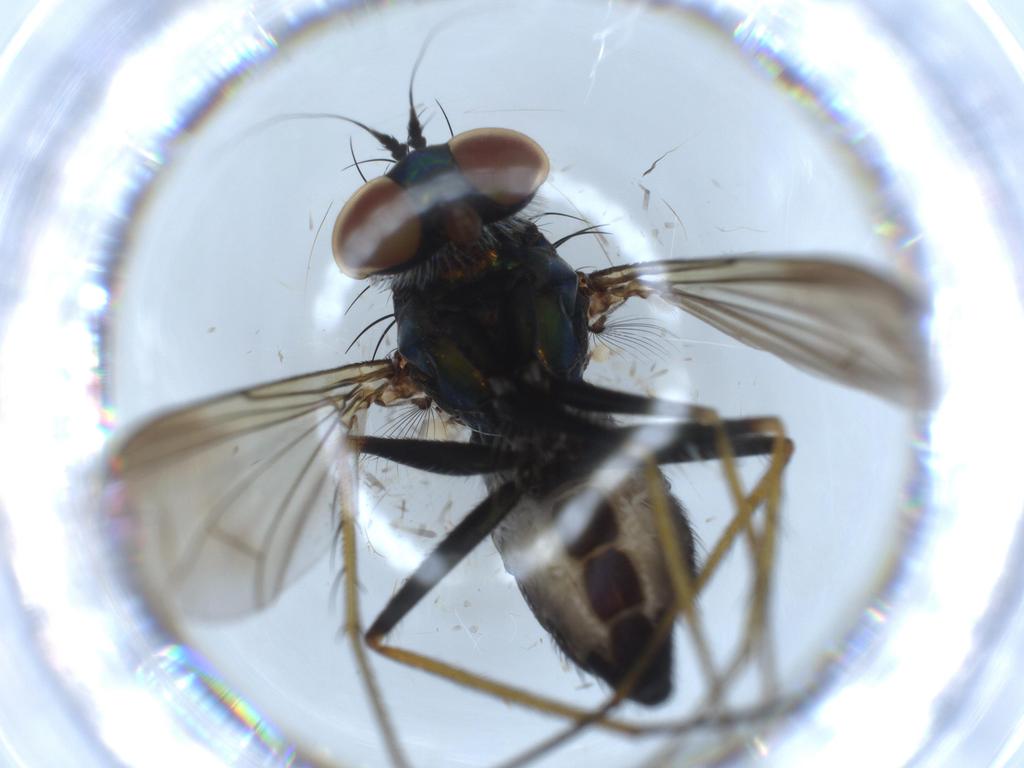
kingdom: Animalia
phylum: Arthropoda
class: Insecta
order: Diptera
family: Dolichopodidae
